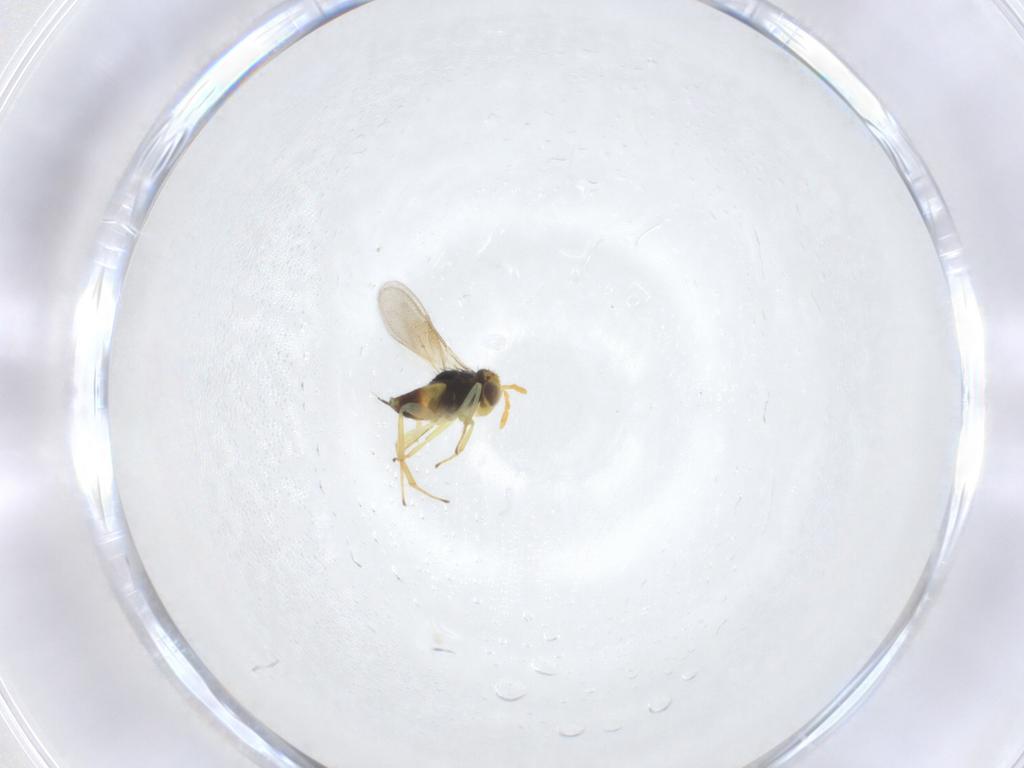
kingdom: Animalia
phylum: Arthropoda
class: Insecta
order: Hymenoptera
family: Aphelinidae
